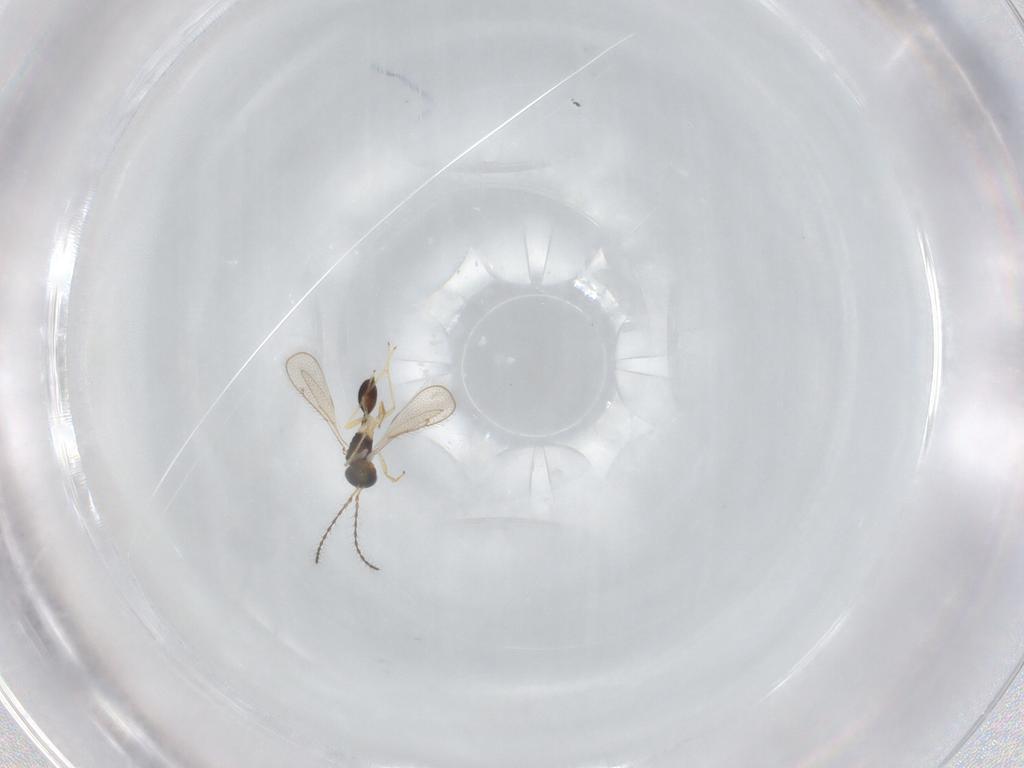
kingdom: Animalia
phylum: Arthropoda
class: Insecta
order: Hymenoptera
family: Diparidae
